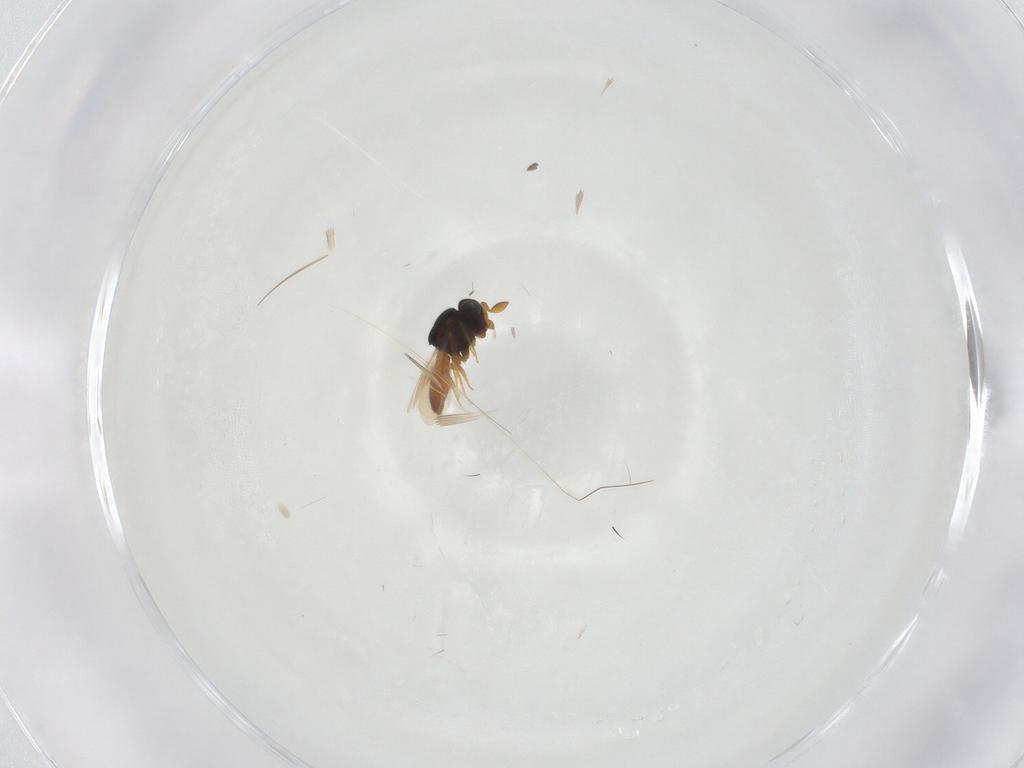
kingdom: Animalia
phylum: Arthropoda
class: Insecta
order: Hymenoptera
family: Scelionidae
